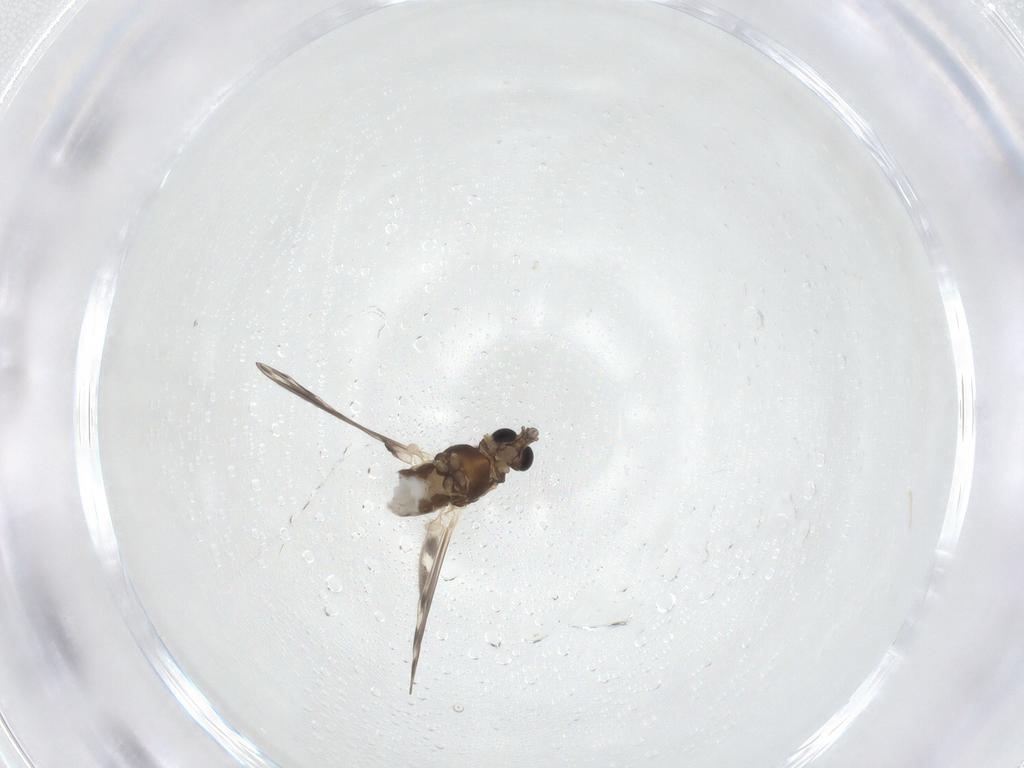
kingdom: Animalia
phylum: Arthropoda
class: Insecta
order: Diptera
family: Chironomidae
